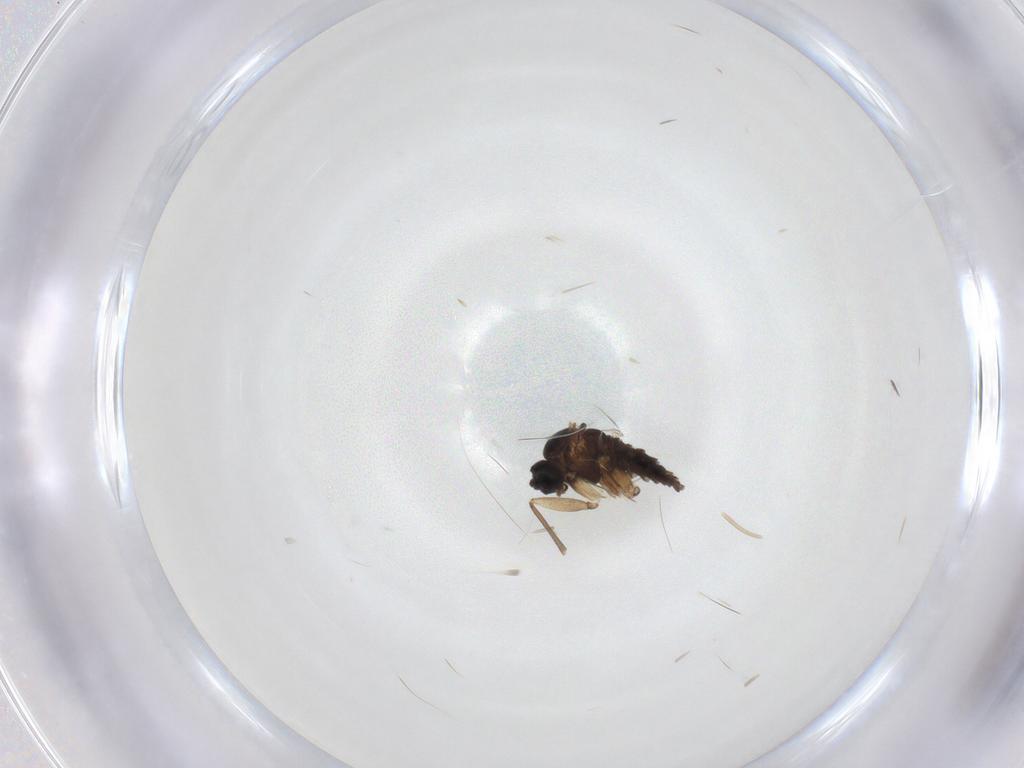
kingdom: Animalia
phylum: Arthropoda
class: Insecta
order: Diptera
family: Sciaridae
